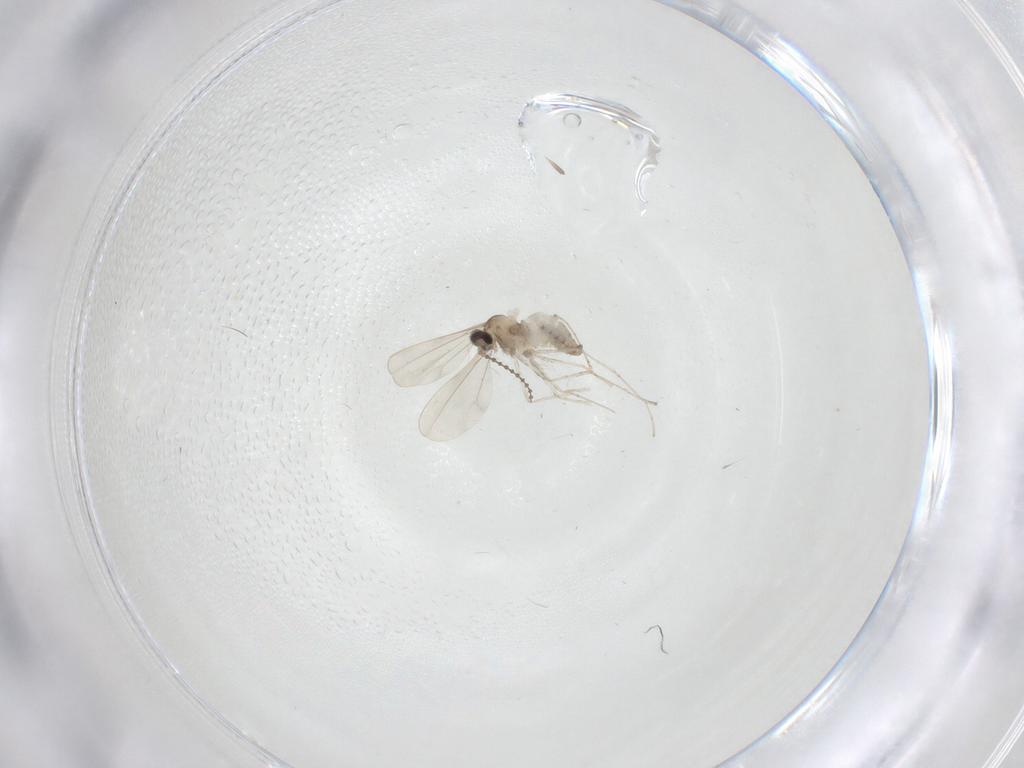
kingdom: Animalia
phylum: Arthropoda
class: Insecta
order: Diptera
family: Cecidomyiidae
